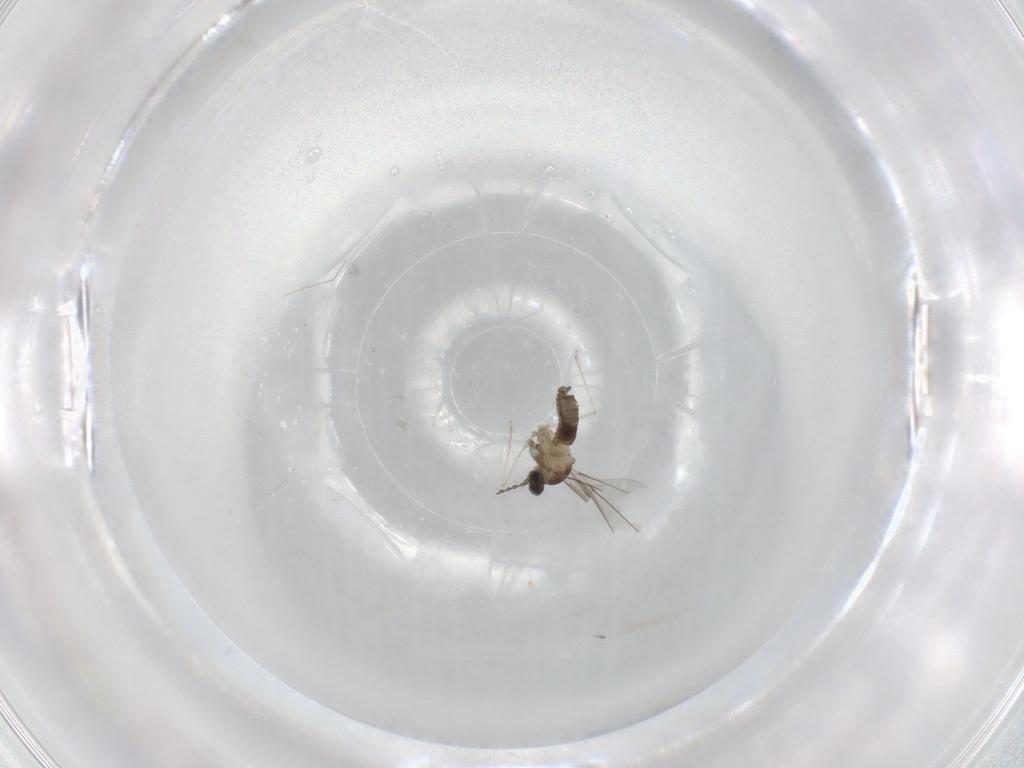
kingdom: Animalia
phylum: Arthropoda
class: Insecta
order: Diptera
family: Cecidomyiidae
